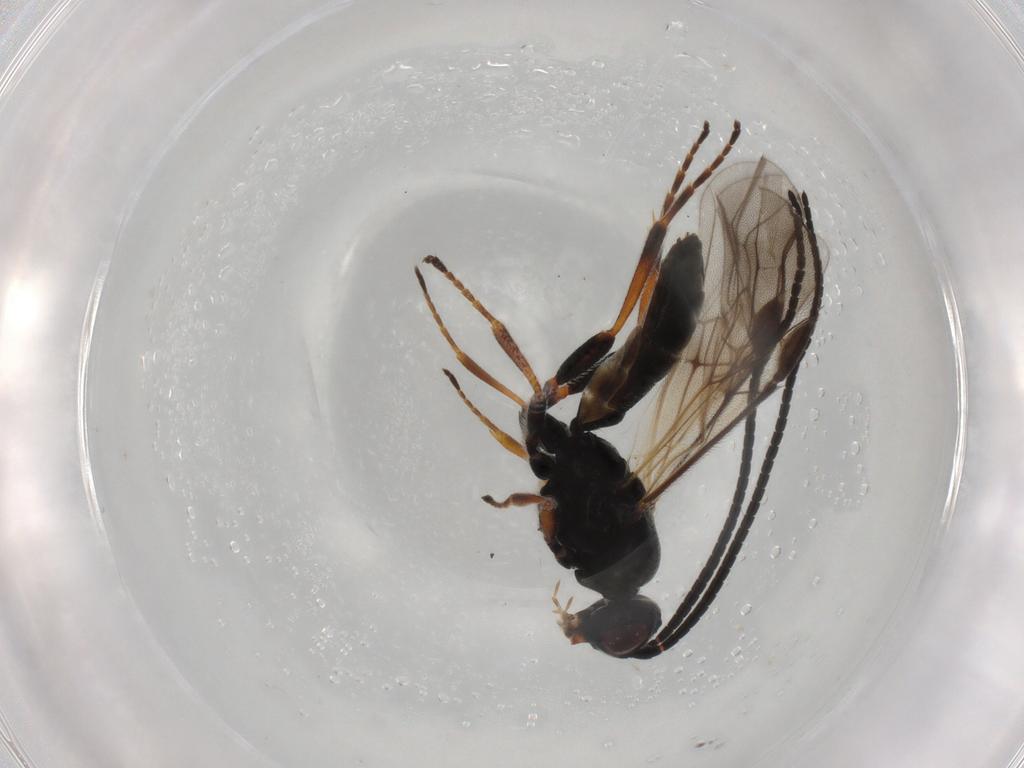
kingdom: Animalia
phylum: Arthropoda
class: Insecta
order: Hymenoptera
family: Braconidae
